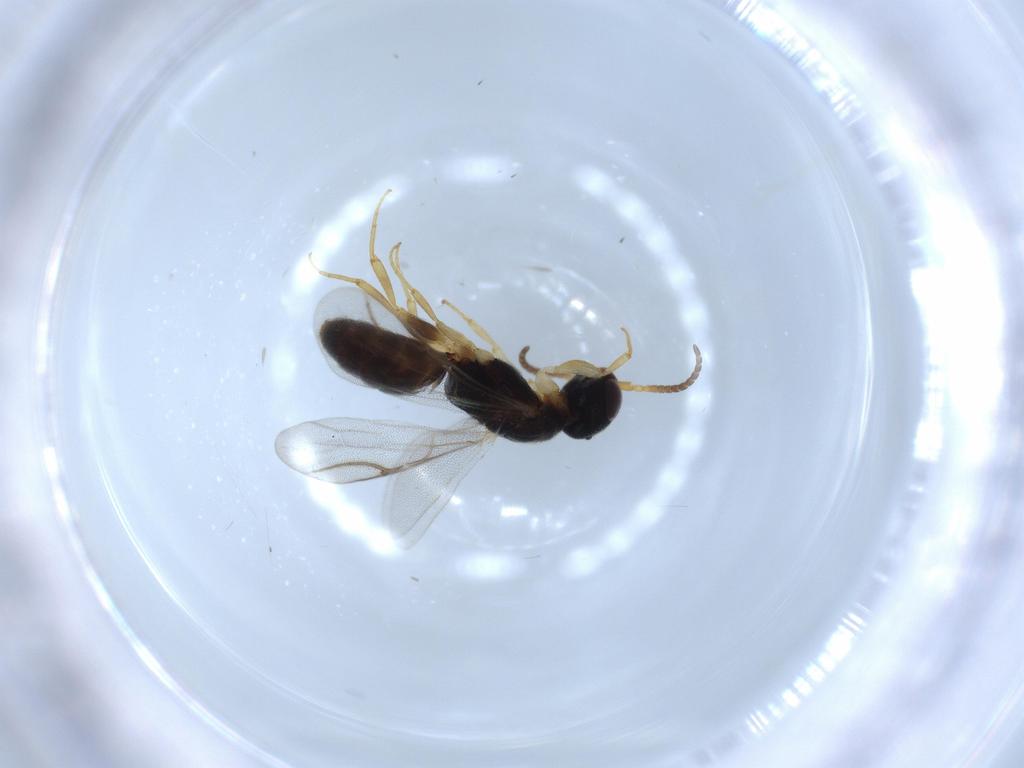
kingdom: Animalia
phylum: Arthropoda
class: Insecta
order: Hymenoptera
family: Bethylidae
